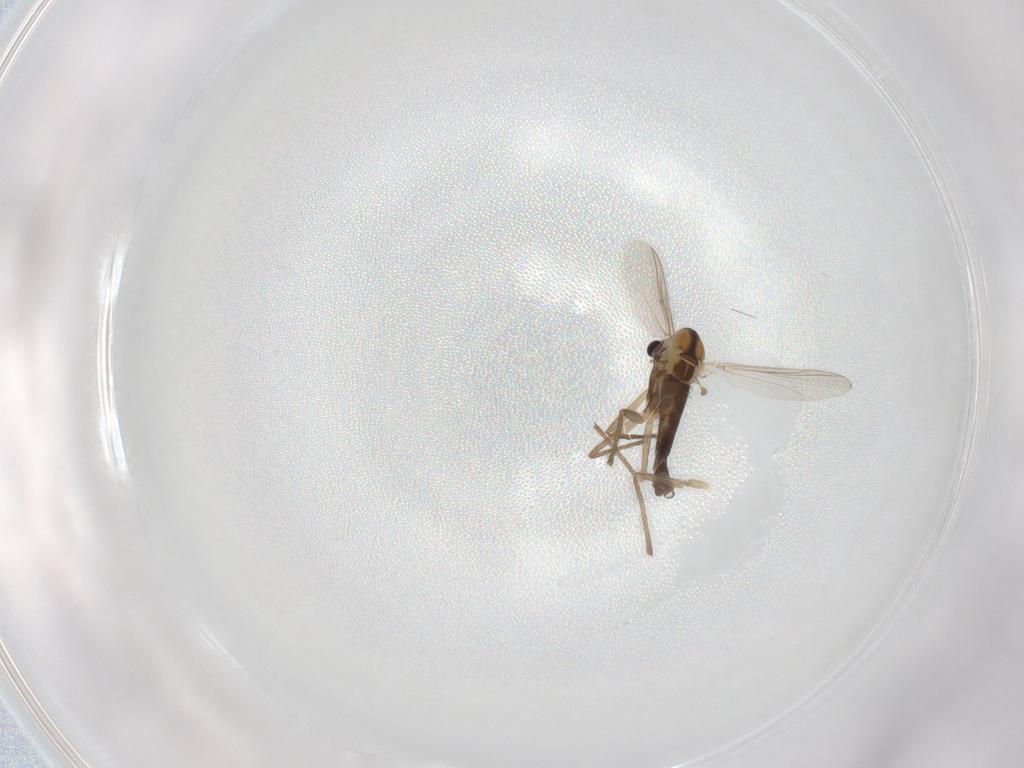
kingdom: Animalia
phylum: Arthropoda
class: Insecta
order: Diptera
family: Chironomidae
